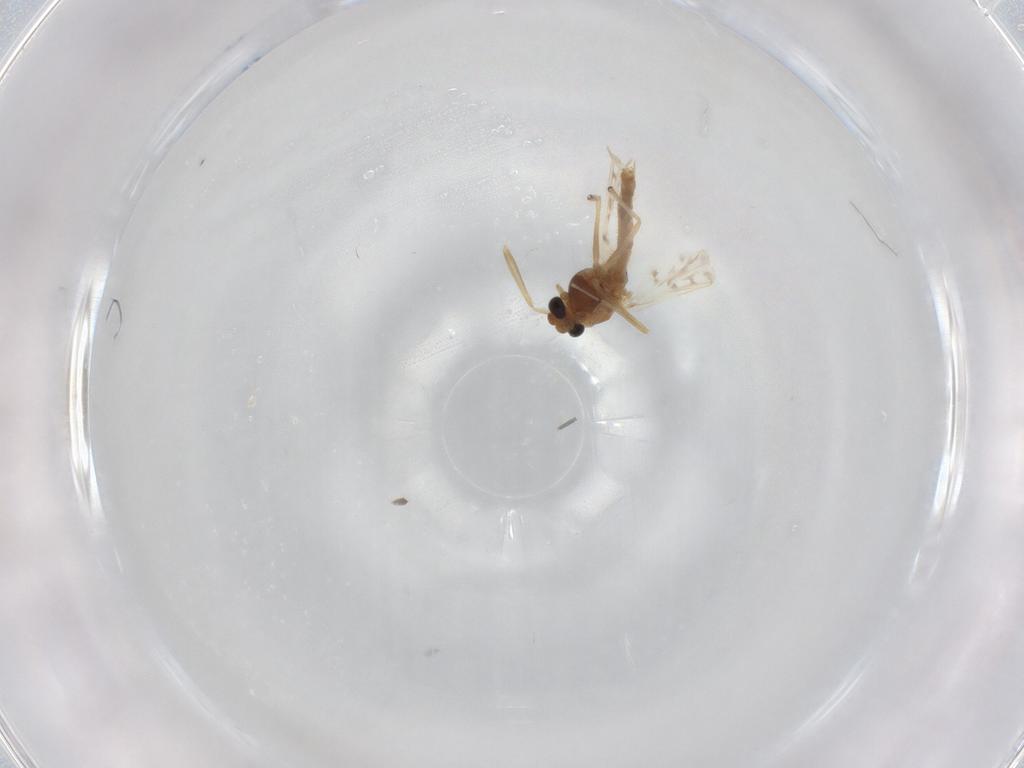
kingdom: Animalia
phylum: Arthropoda
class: Insecta
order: Diptera
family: Chironomidae
